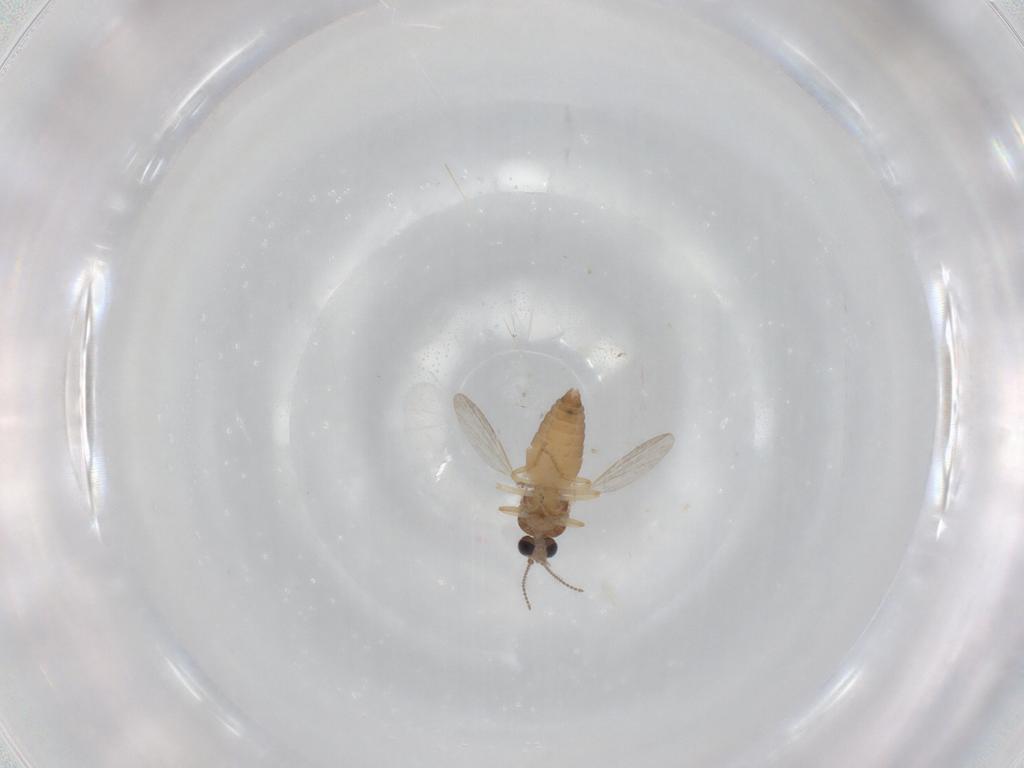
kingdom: Animalia
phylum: Arthropoda
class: Insecta
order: Diptera
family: Ceratopogonidae
